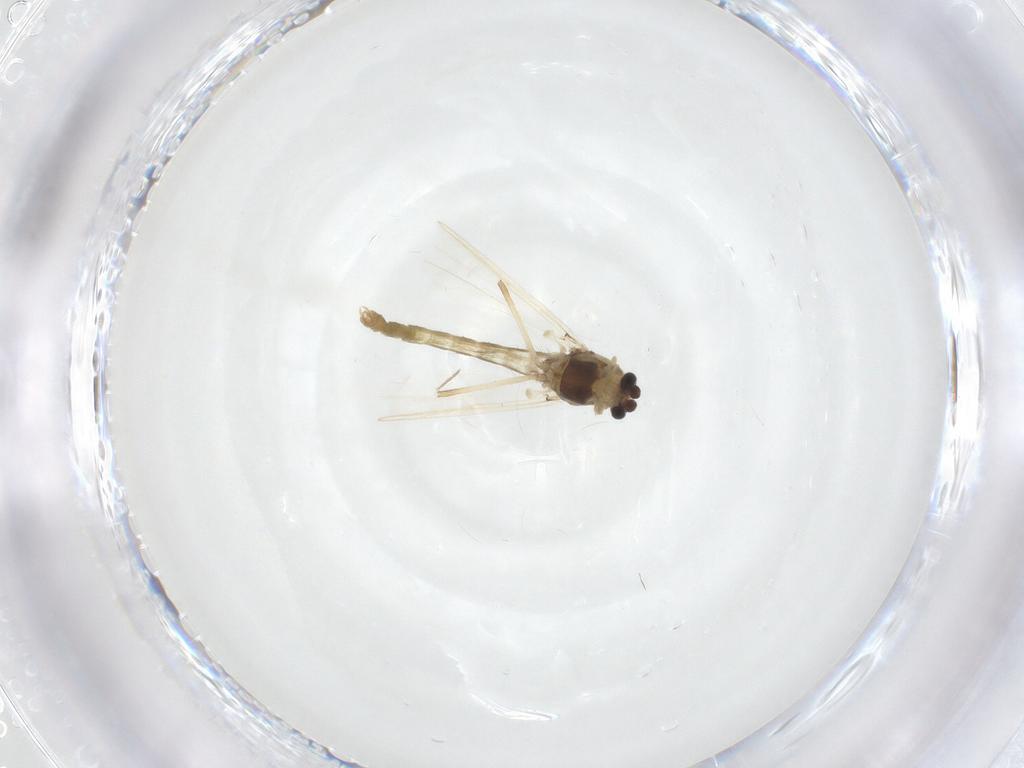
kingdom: Animalia
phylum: Arthropoda
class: Insecta
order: Diptera
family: Chironomidae
